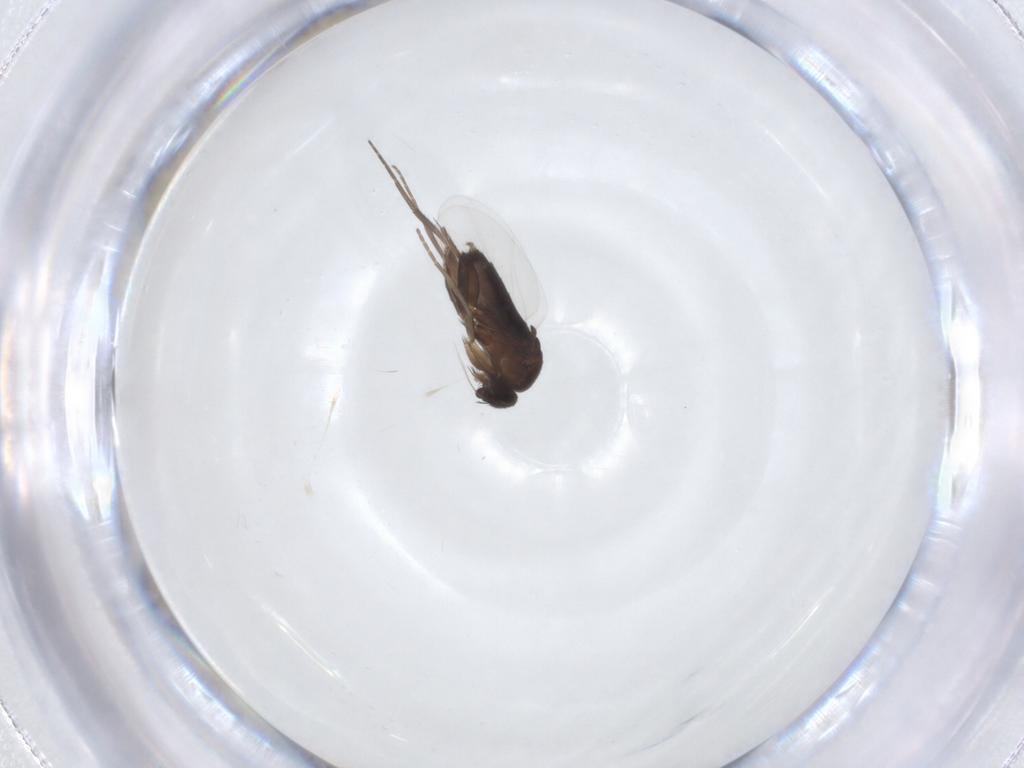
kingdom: Animalia
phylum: Arthropoda
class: Insecta
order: Diptera
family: Phoridae
